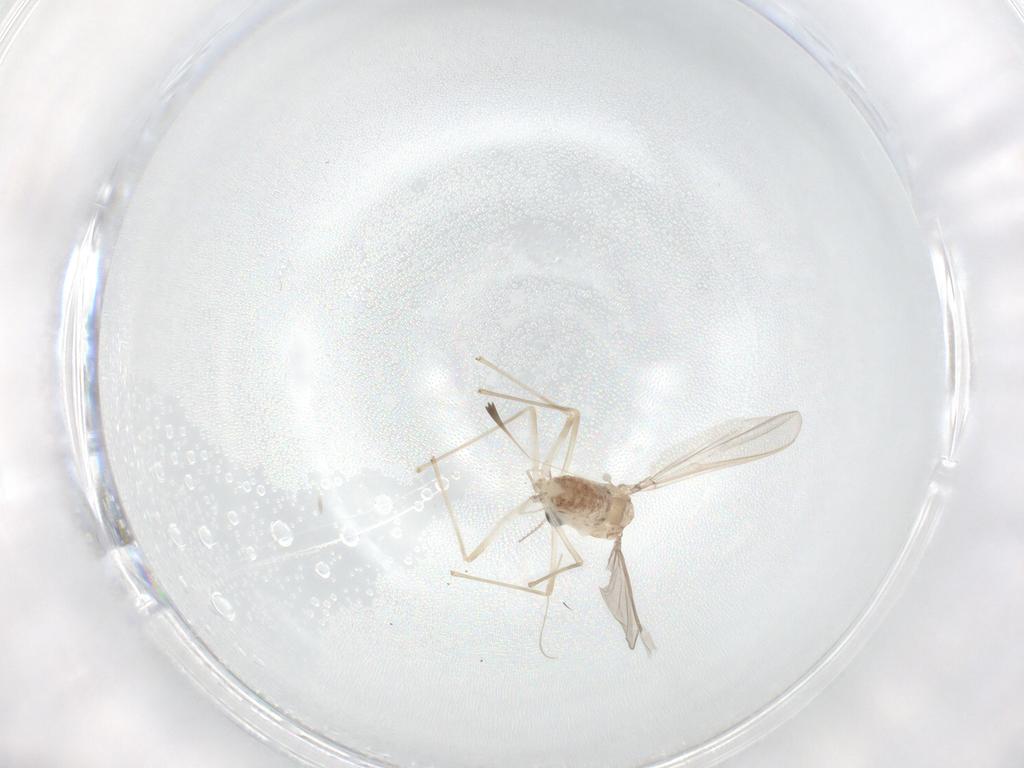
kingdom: Animalia
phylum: Arthropoda
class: Insecta
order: Diptera
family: Chironomidae
